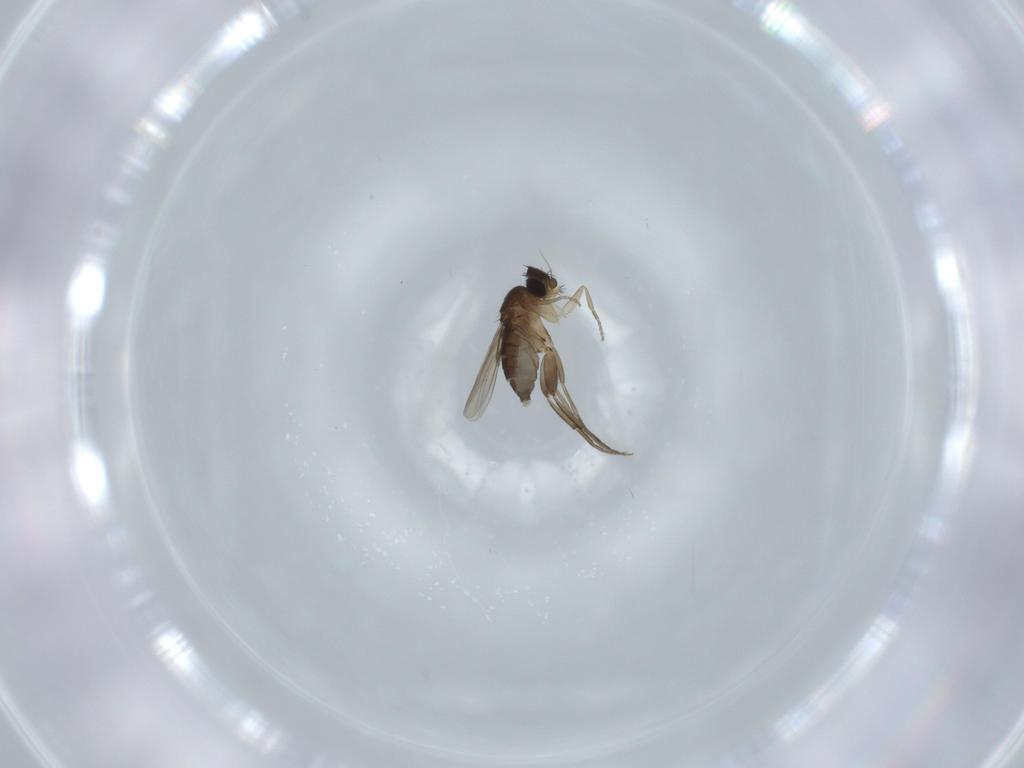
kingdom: Animalia
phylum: Arthropoda
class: Insecta
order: Diptera
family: Phoridae
